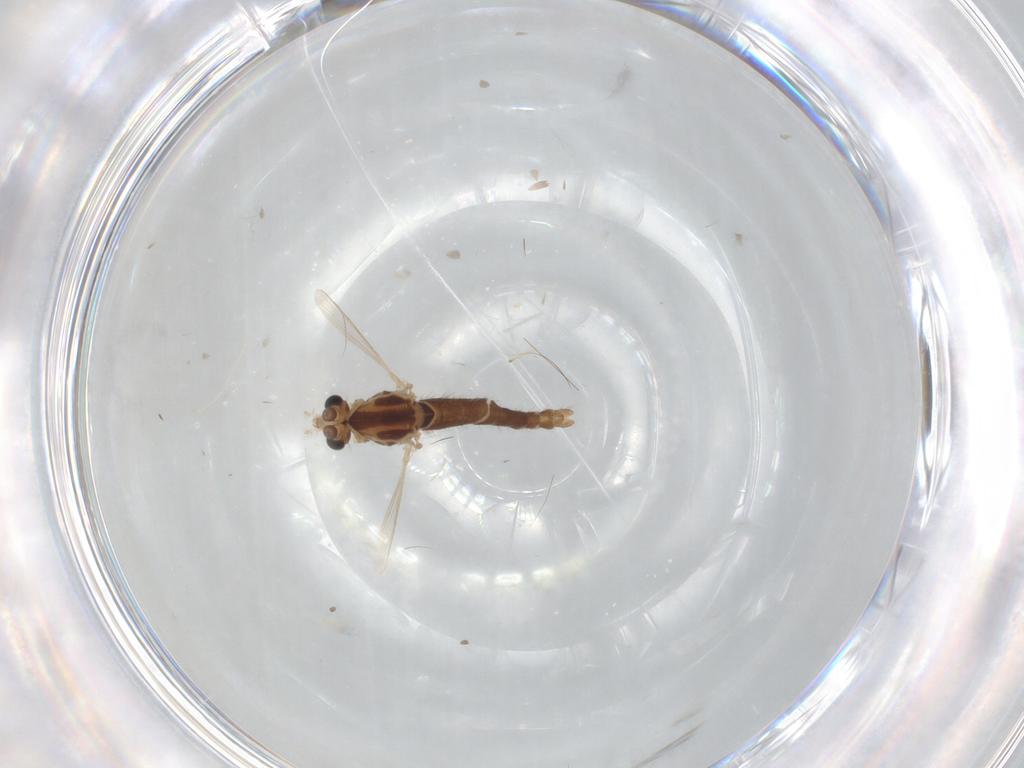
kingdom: Animalia
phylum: Arthropoda
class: Insecta
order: Diptera
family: Chironomidae
